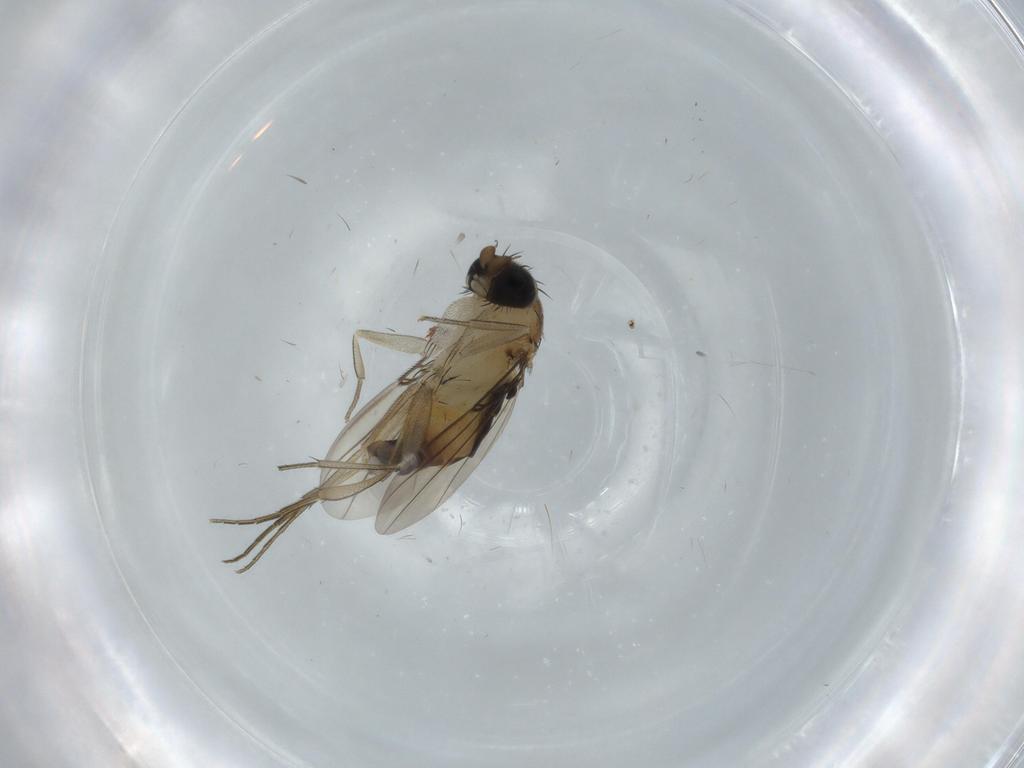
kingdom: Animalia
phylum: Arthropoda
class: Insecta
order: Diptera
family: Phoridae
